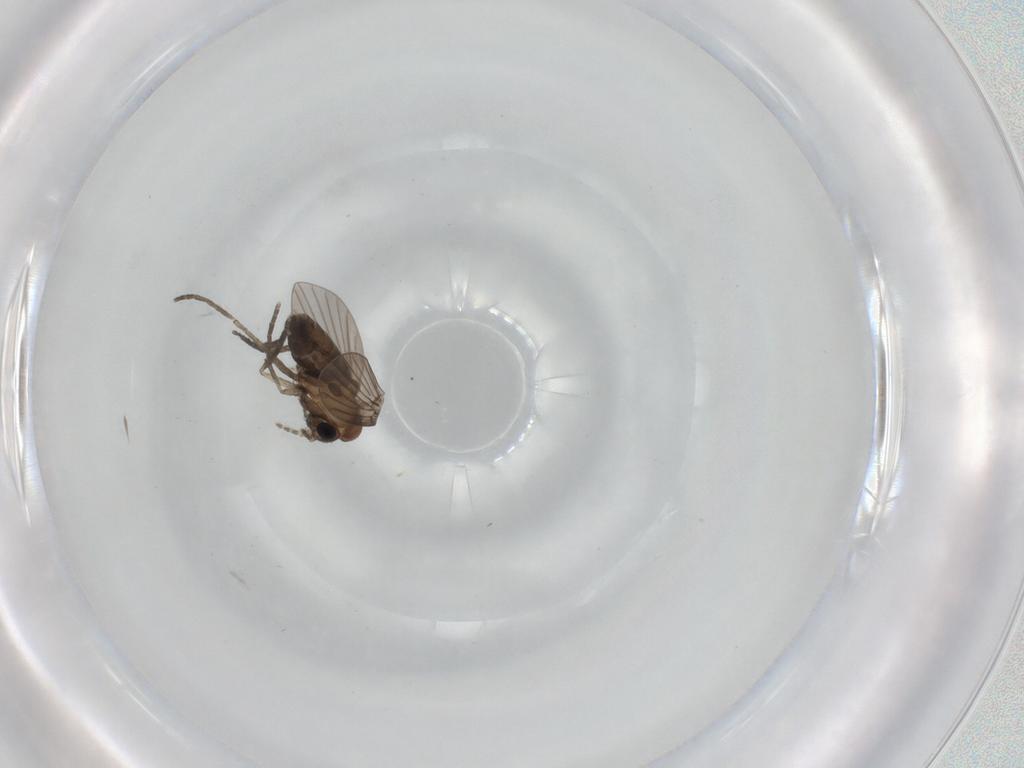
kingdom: Animalia
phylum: Arthropoda
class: Insecta
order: Diptera
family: Psychodidae
